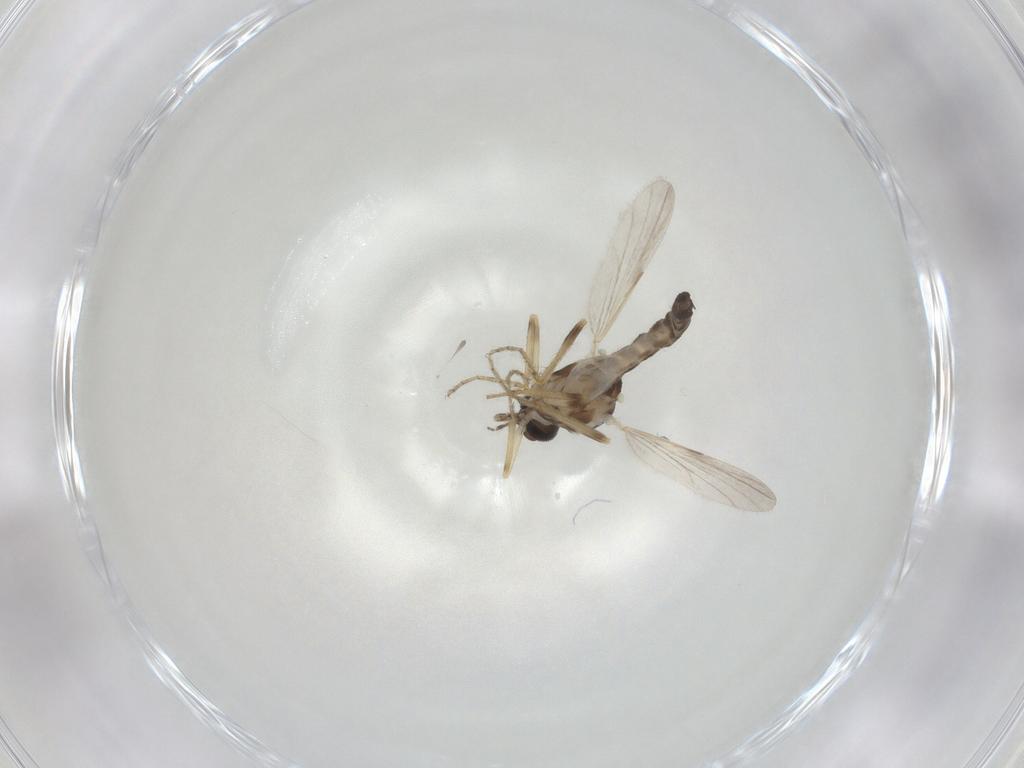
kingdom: Animalia
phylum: Arthropoda
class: Insecta
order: Diptera
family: Ceratopogonidae
